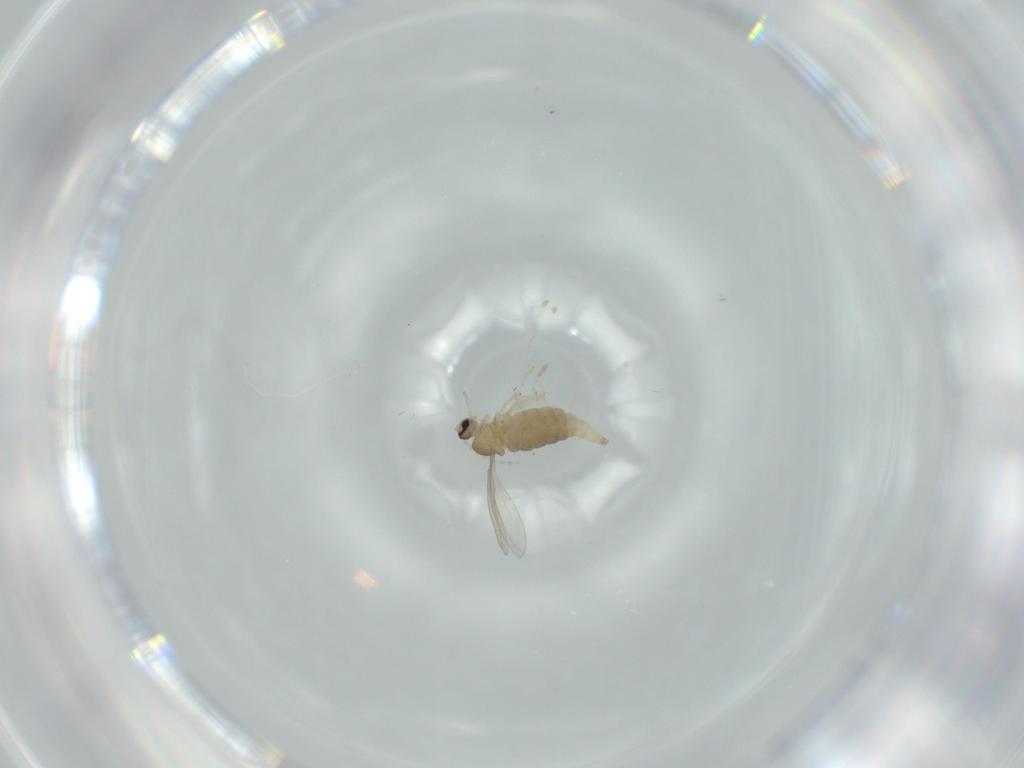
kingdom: Animalia
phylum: Arthropoda
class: Insecta
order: Diptera
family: Cecidomyiidae
